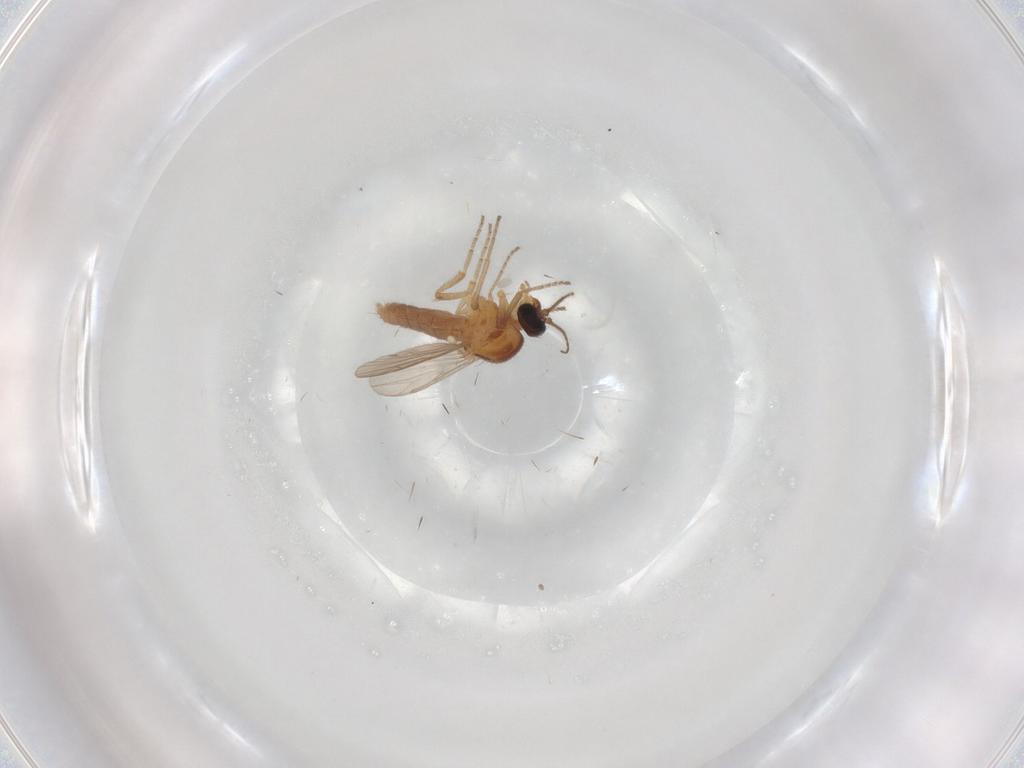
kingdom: Animalia
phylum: Arthropoda
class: Insecta
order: Diptera
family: Ceratopogonidae
